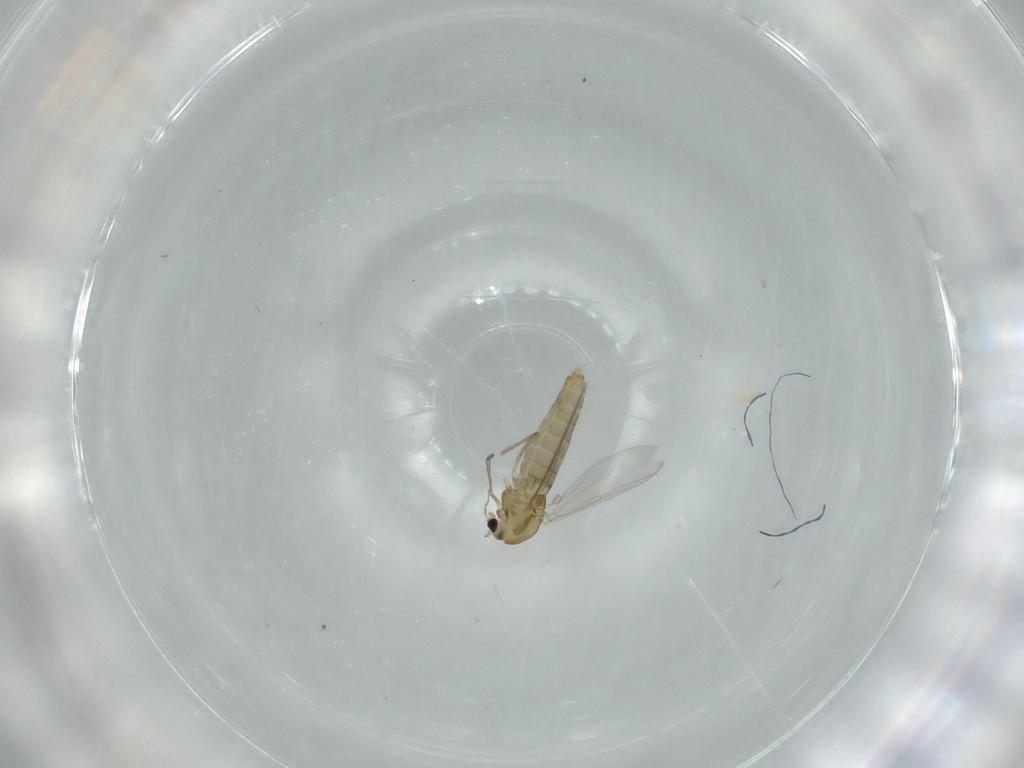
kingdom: Animalia
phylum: Arthropoda
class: Insecta
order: Diptera
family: Chironomidae
